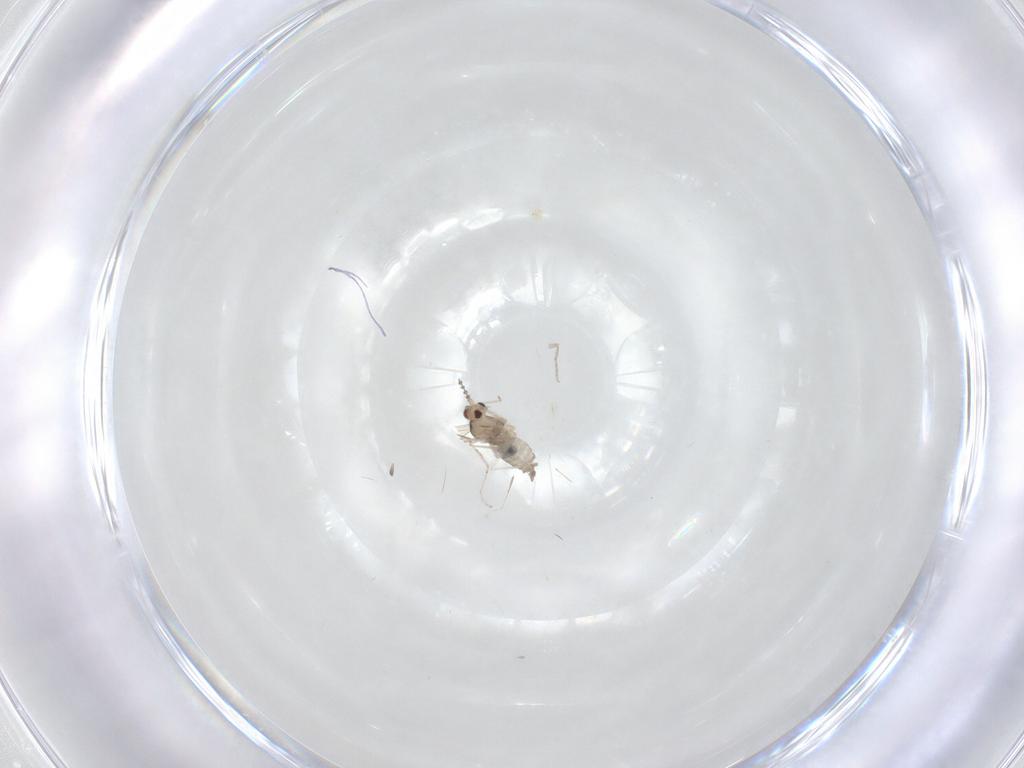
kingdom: Animalia
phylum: Arthropoda
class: Insecta
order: Diptera
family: Cecidomyiidae
